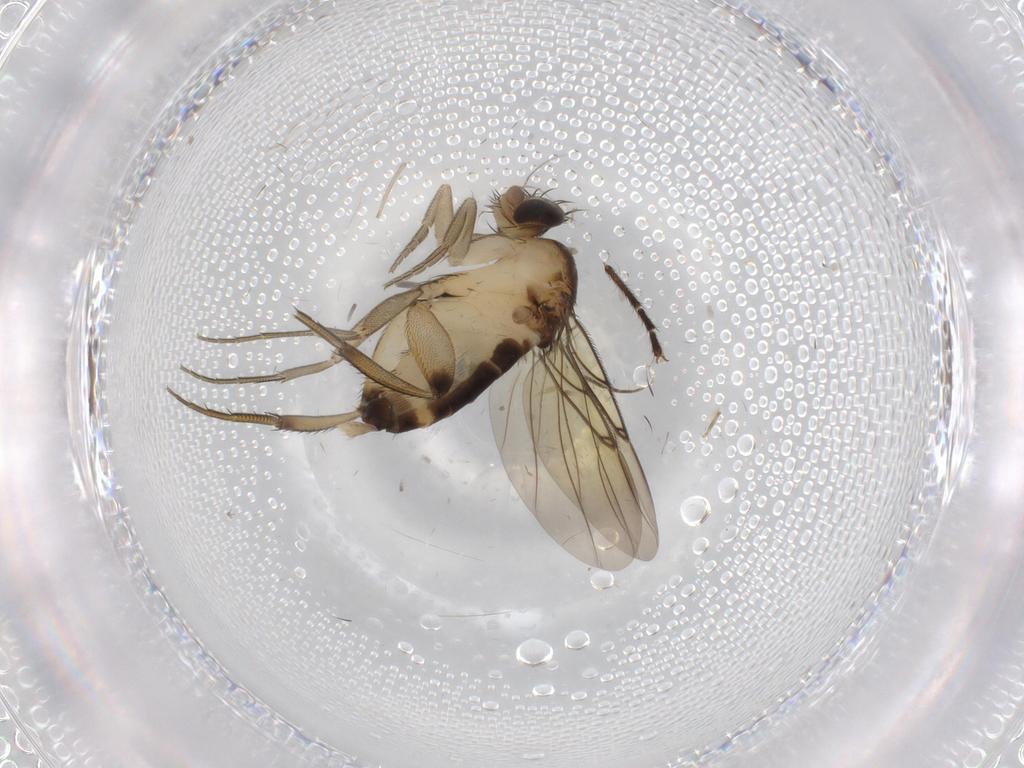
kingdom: Animalia
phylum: Arthropoda
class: Insecta
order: Diptera
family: Phoridae
